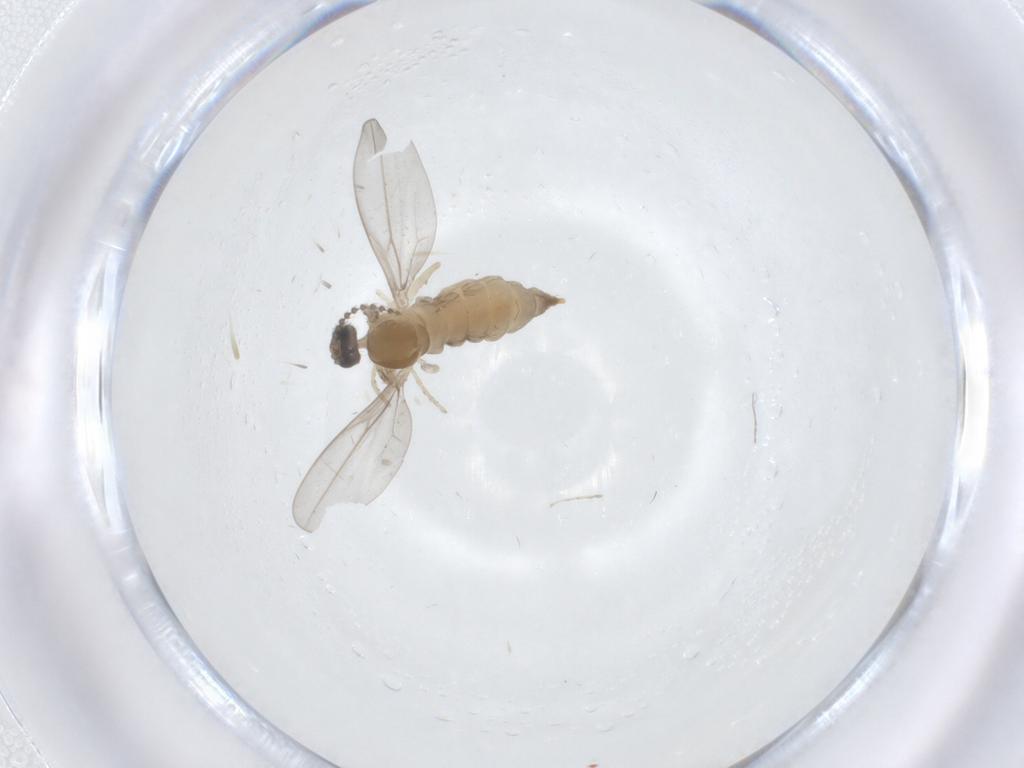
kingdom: Animalia
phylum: Arthropoda
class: Insecta
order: Diptera
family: Cecidomyiidae
